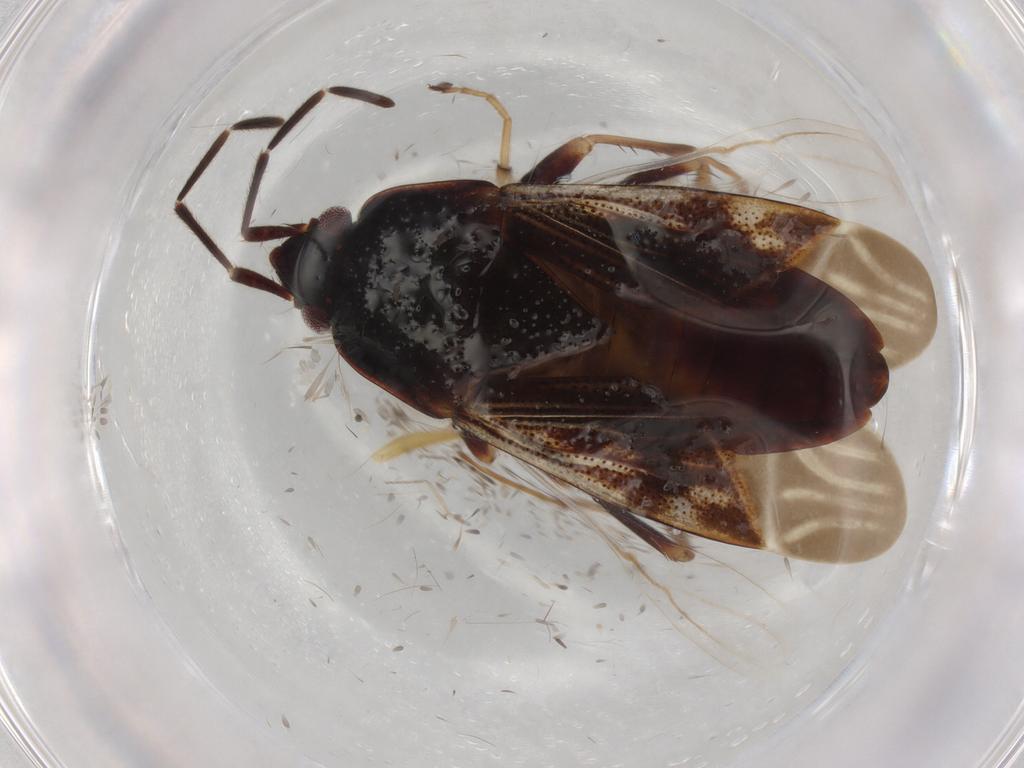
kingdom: Animalia
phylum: Arthropoda
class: Insecta
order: Hemiptera
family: Rhyparochromidae
